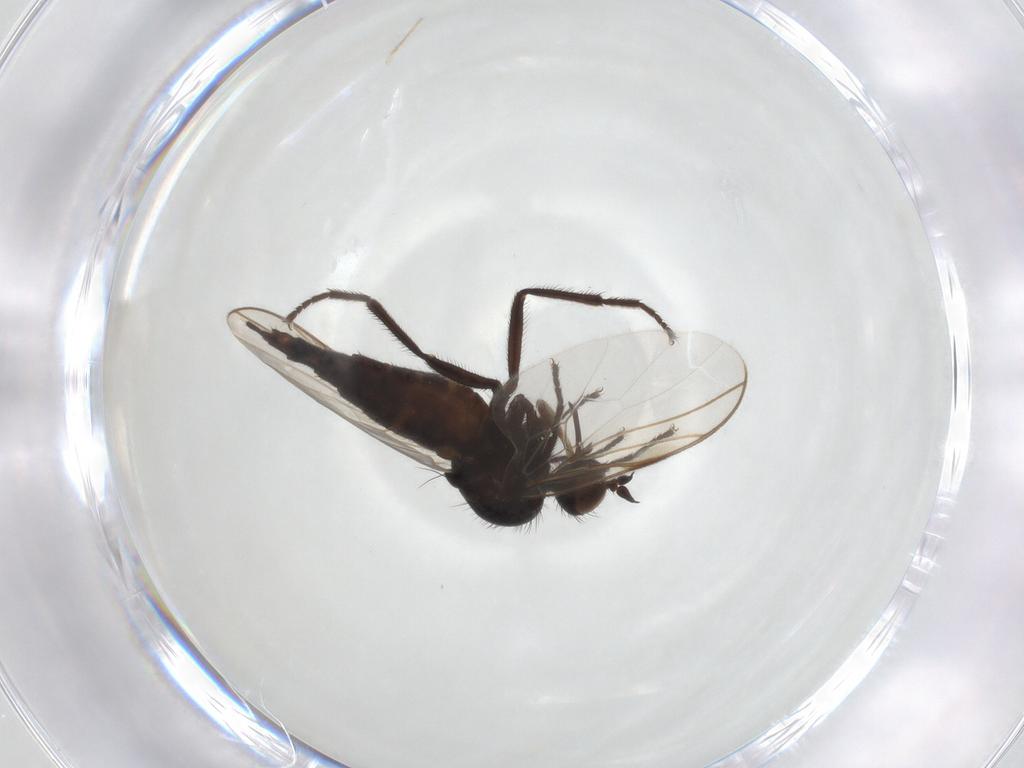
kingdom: Animalia
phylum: Arthropoda
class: Insecta
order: Diptera
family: Empididae
